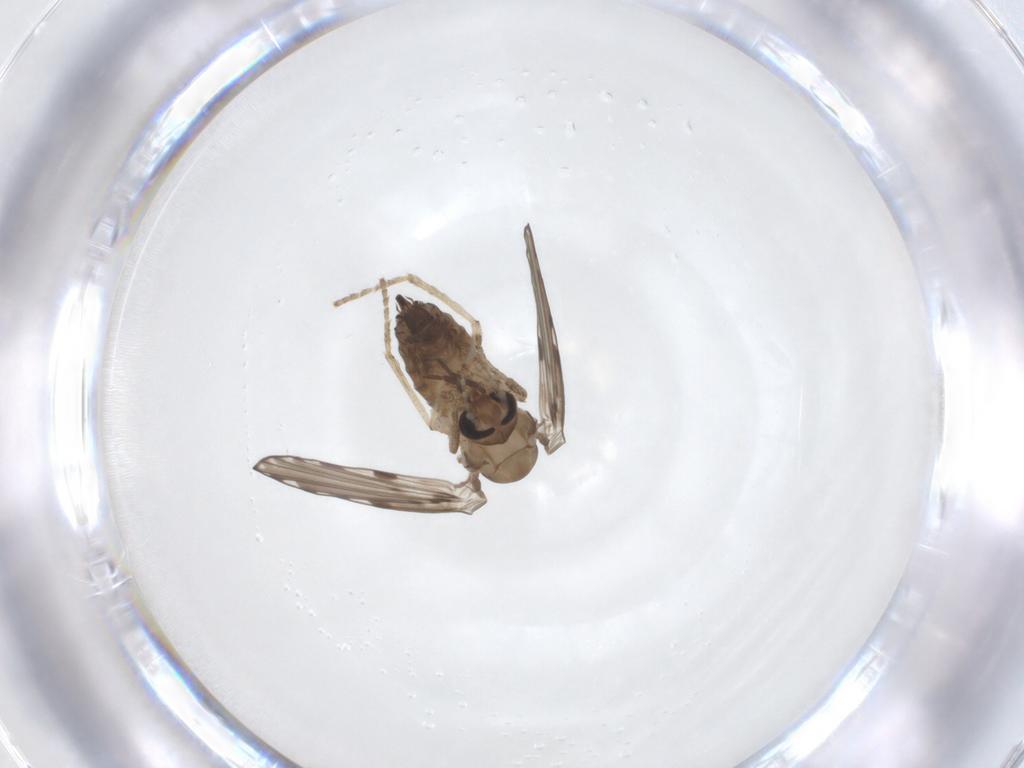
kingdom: Animalia
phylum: Arthropoda
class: Insecta
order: Diptera
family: Psychodidae
